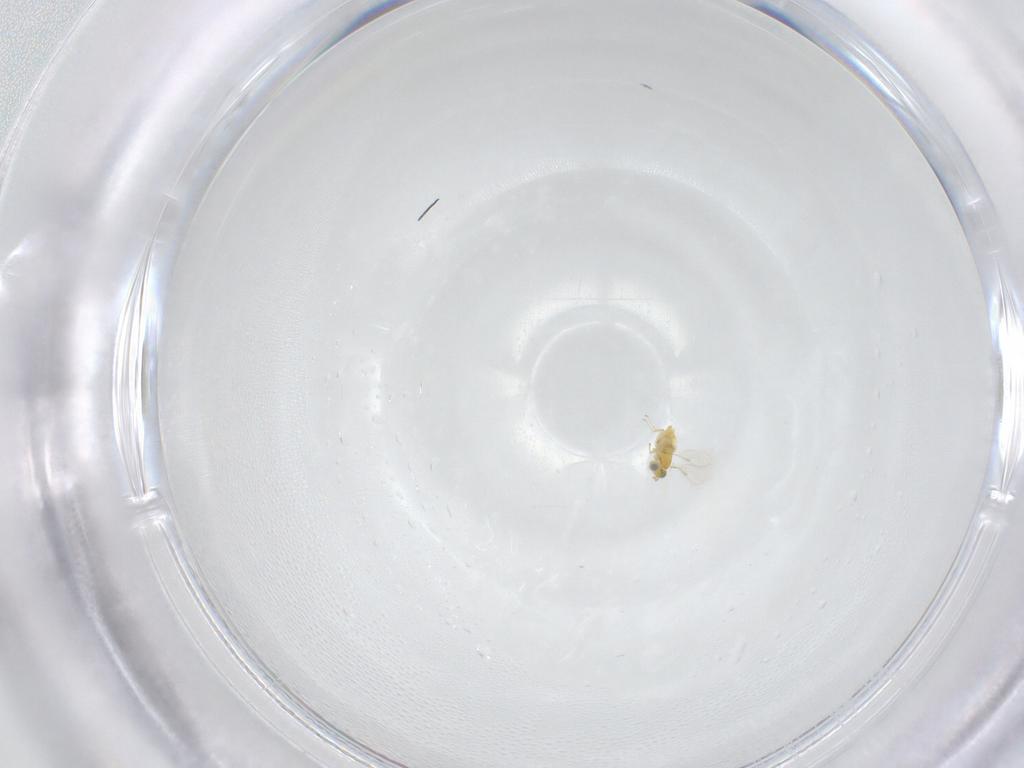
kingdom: Animalia
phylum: Arthropoda
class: Insecta
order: Hymenoptera
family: Aphelinidae
